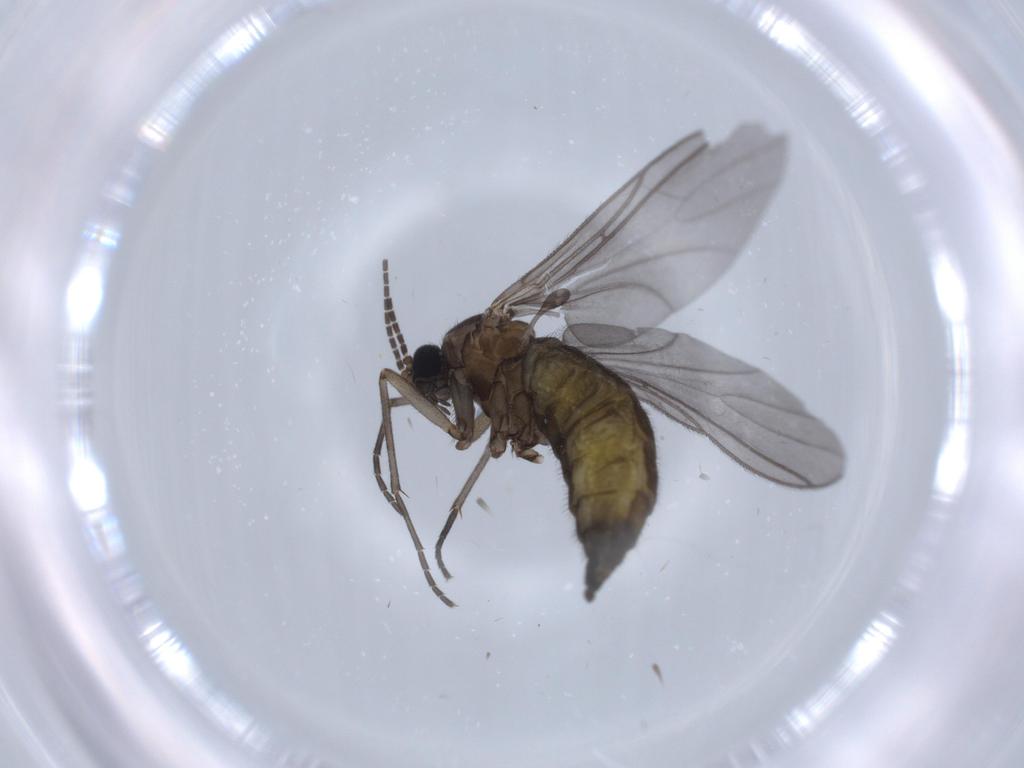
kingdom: Animalia
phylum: Arthropoda
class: Insecta
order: Diptera
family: Sciaridae
